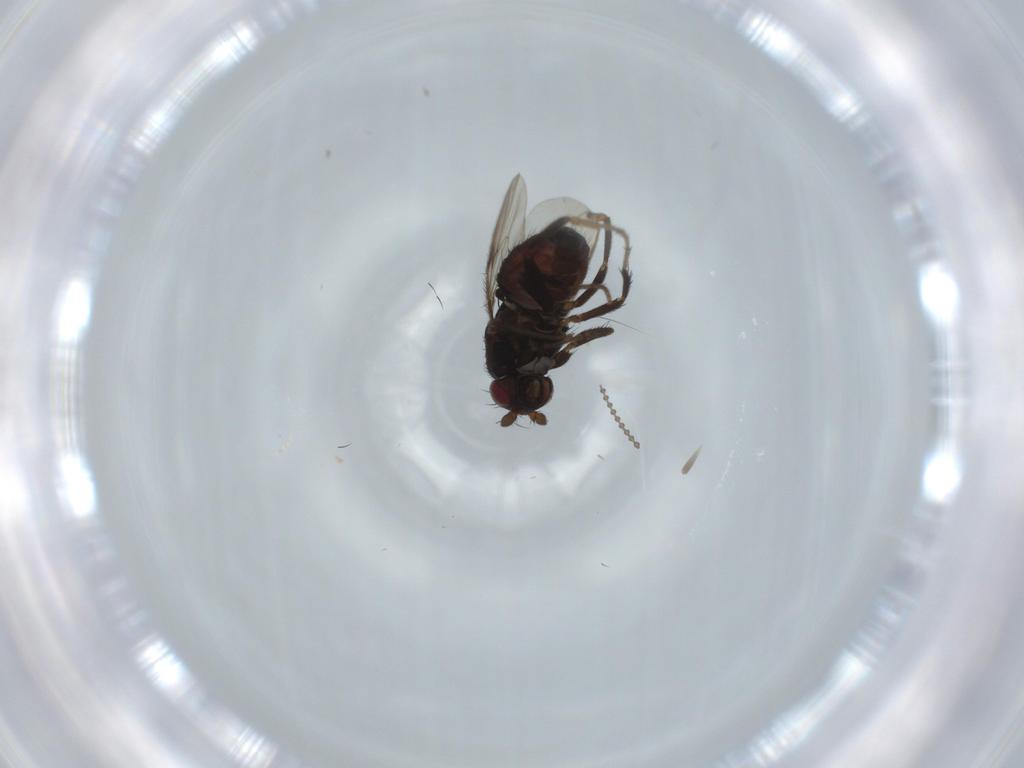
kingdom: Animalia
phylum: Arthropoda
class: Insecta
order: Diptera
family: Sphaeroceridae
